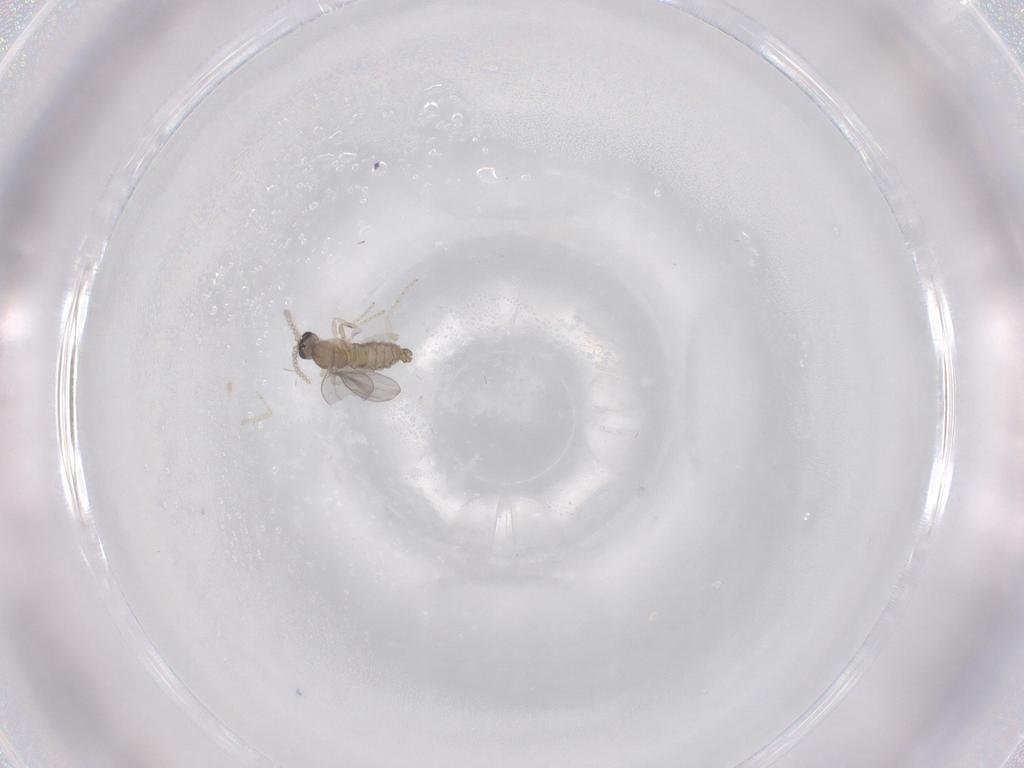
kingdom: Animalia
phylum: Arthropoda
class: Insecta
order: Diptera
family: Cecidomyiidae
